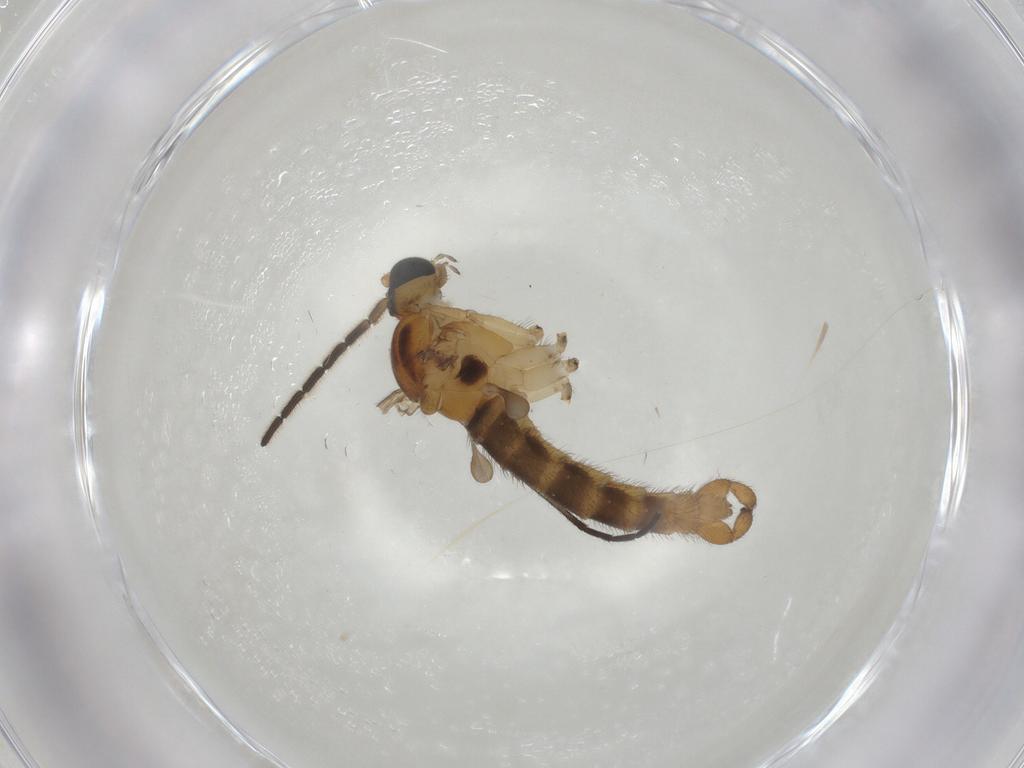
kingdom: Animalia
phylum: Arthropoda
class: Insecta
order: Diptera
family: Sciaridae
